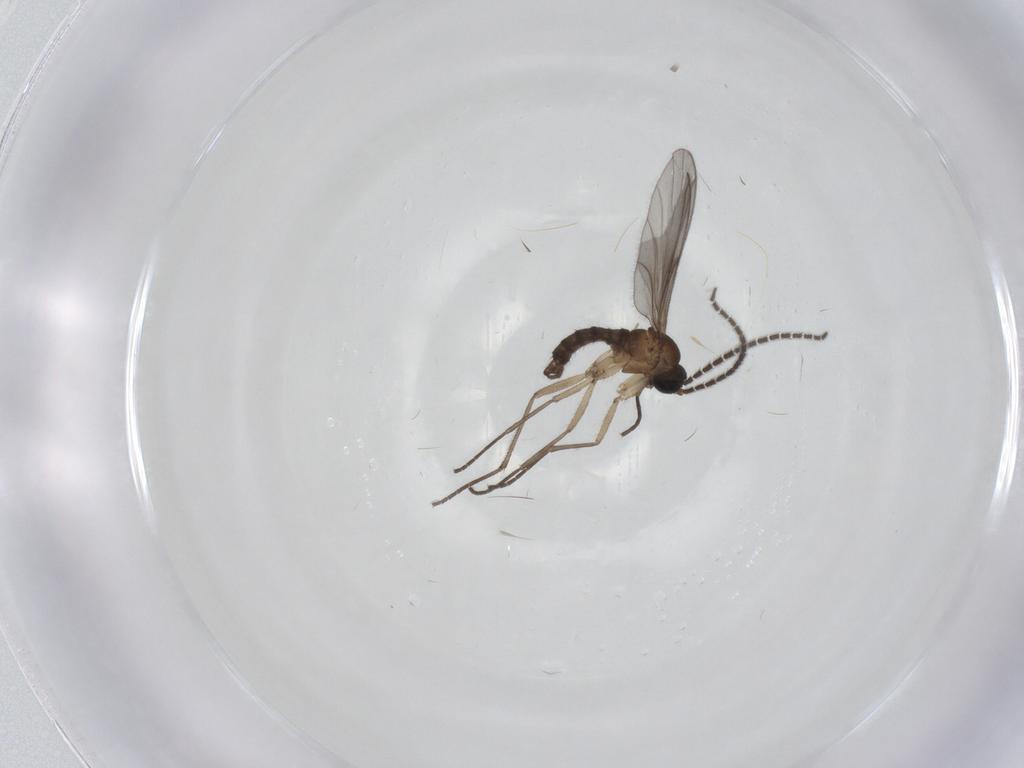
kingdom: Animalia
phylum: Arthropoda
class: Insecta
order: Diptera
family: Sciaridae
